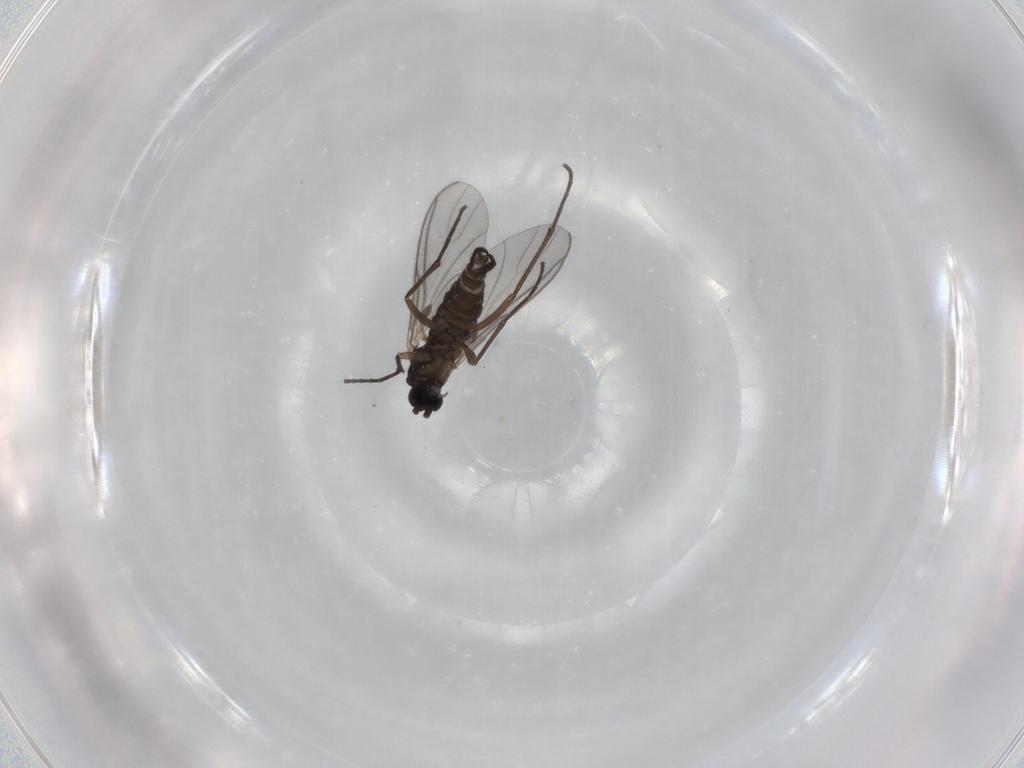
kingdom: Animalia
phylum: Arthropoda
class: Insecta
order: Diptera
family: Sciaridae
